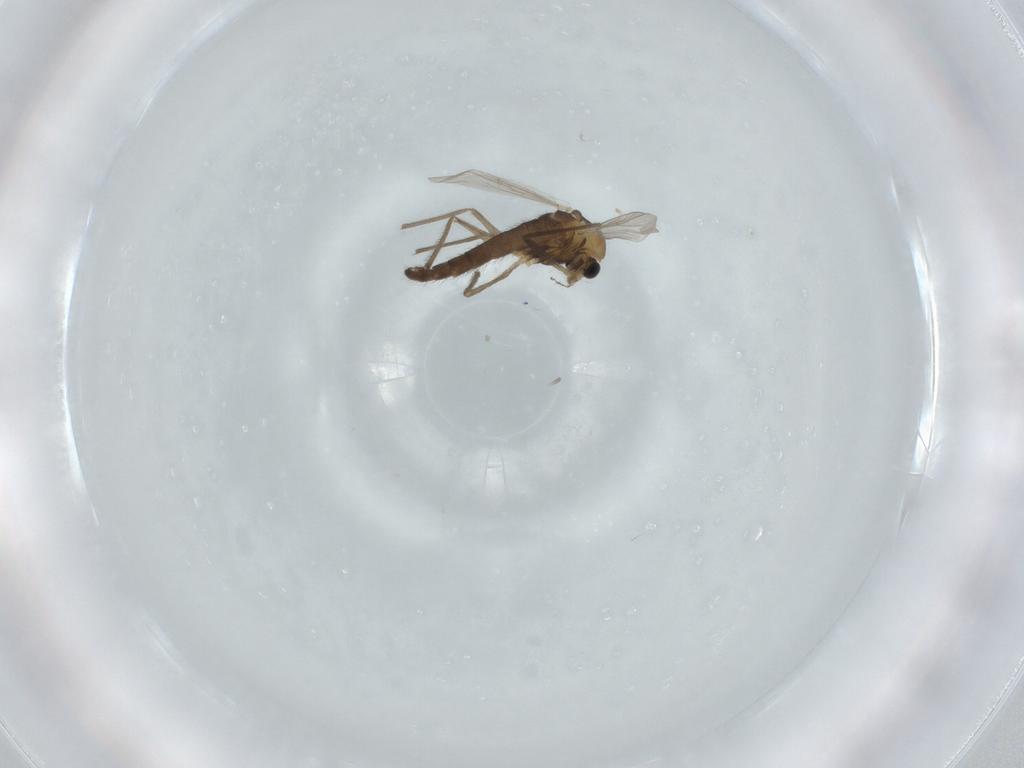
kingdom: Animalia
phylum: Arthropoda
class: Insecta
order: Diptera
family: Chironomidae
